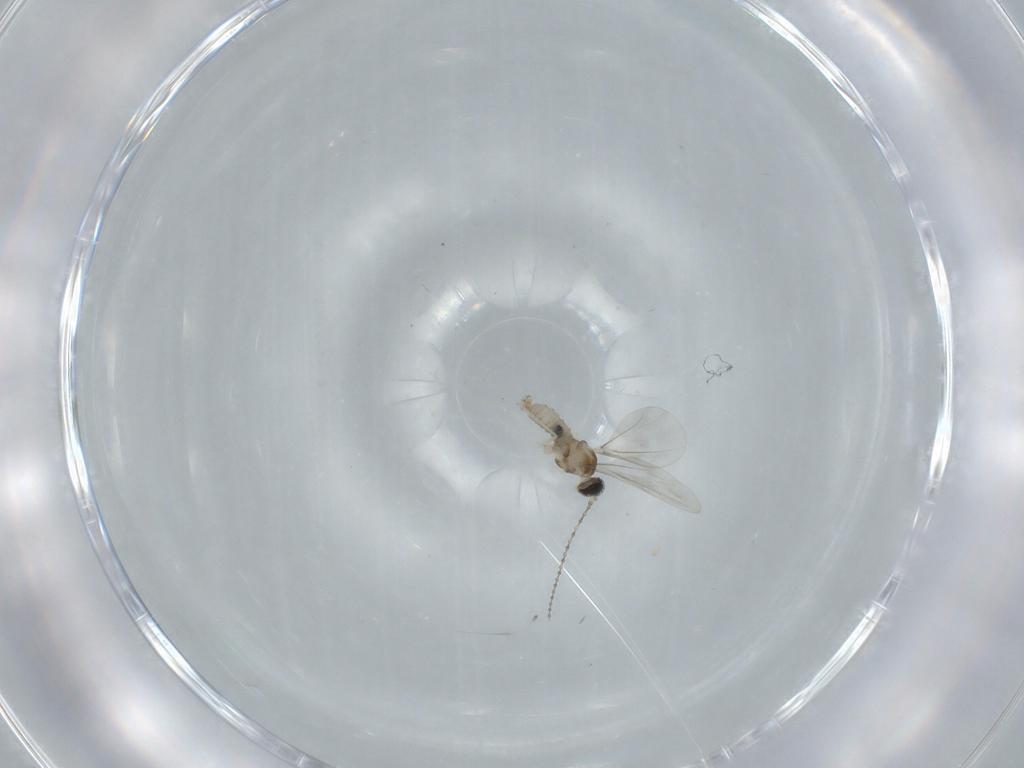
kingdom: Animalia
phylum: Arthropoda
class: Insecta
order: Diptera
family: Cecidomyiidae
